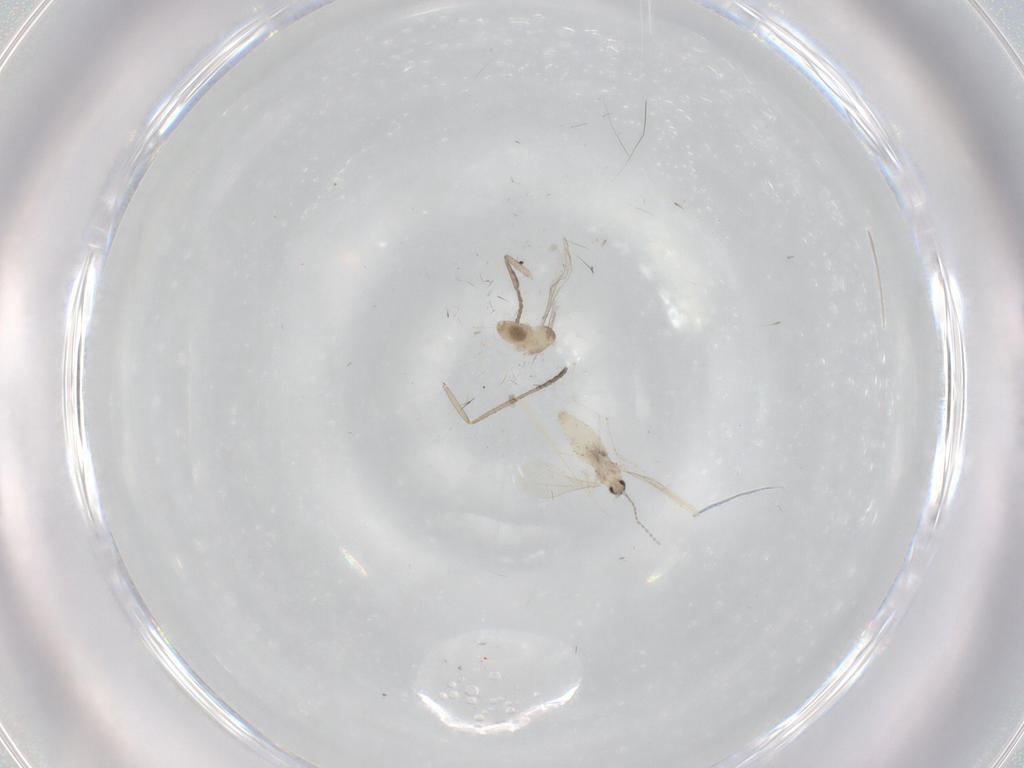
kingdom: Animalia
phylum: Arthropoda
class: Insecta
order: Diptera
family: Cecidomyiidae
